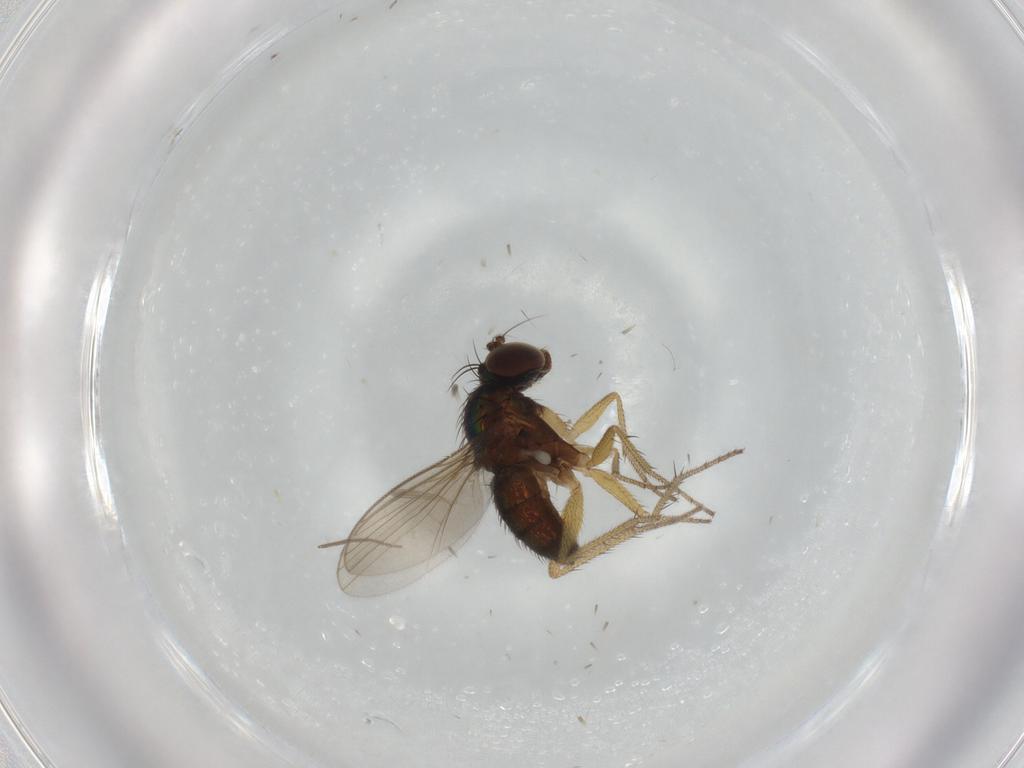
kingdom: Animalia
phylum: Arthropoda
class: Insecta
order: Diptera
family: Dolichopodidae
